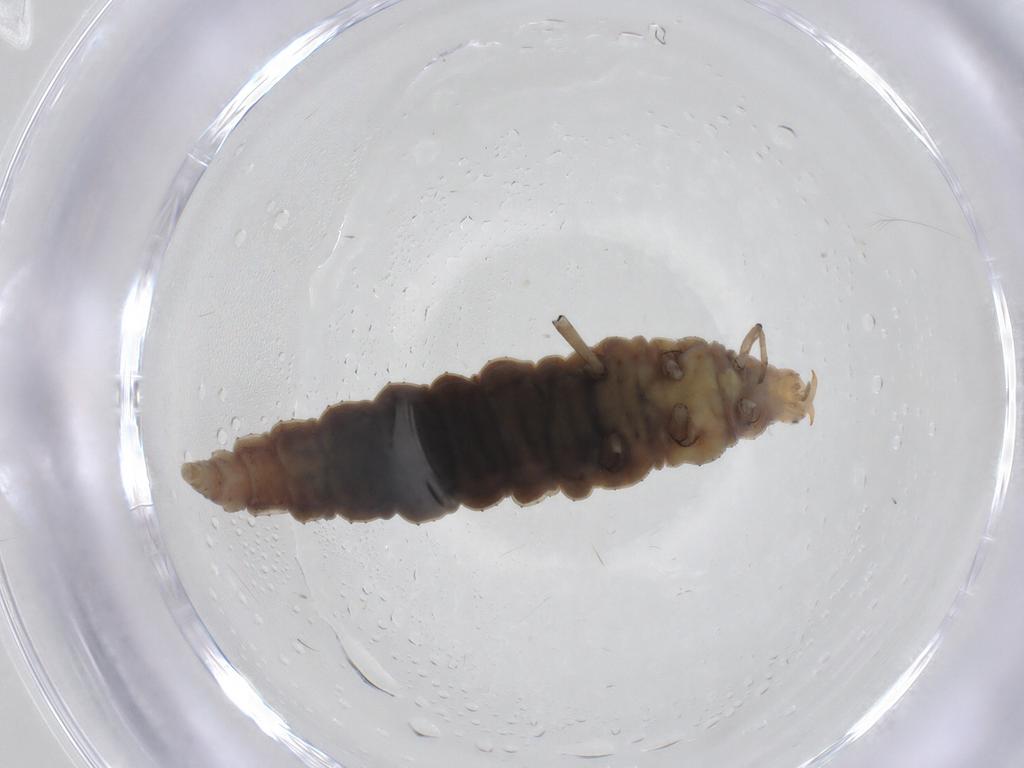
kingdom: Animalia
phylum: Arthropoda
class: Insecta
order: Neuroptera
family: Hemerobiidae
